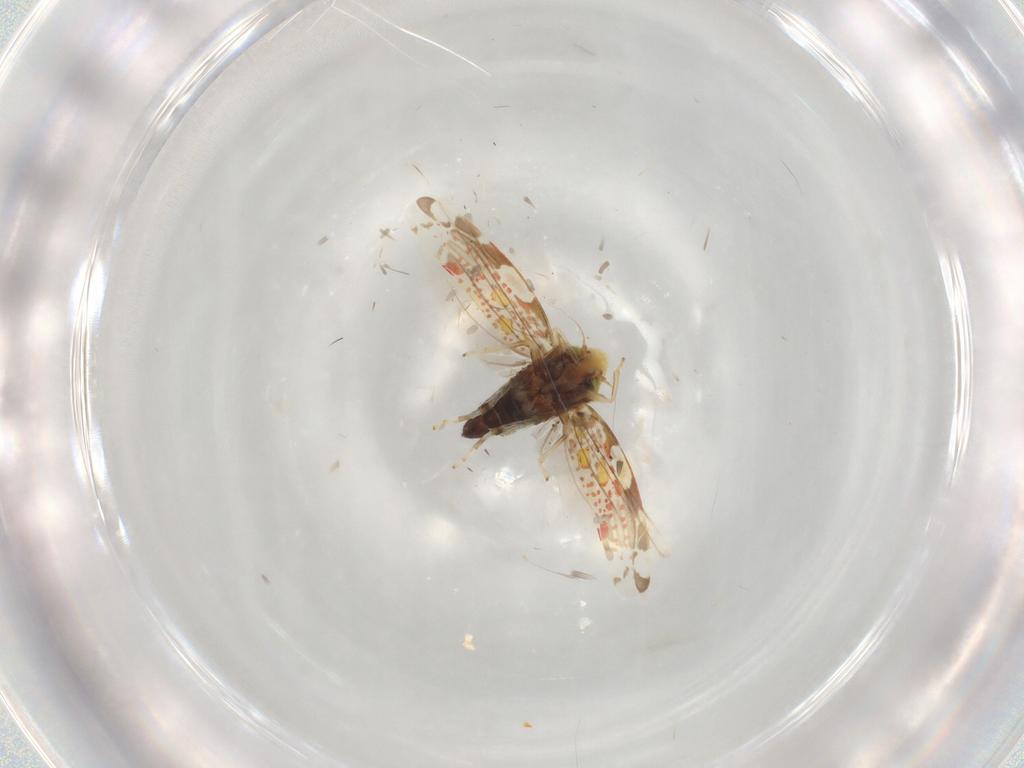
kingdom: Animalia
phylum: Arthropoda
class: Insecta
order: Hemiptera
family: Cicadellidae
